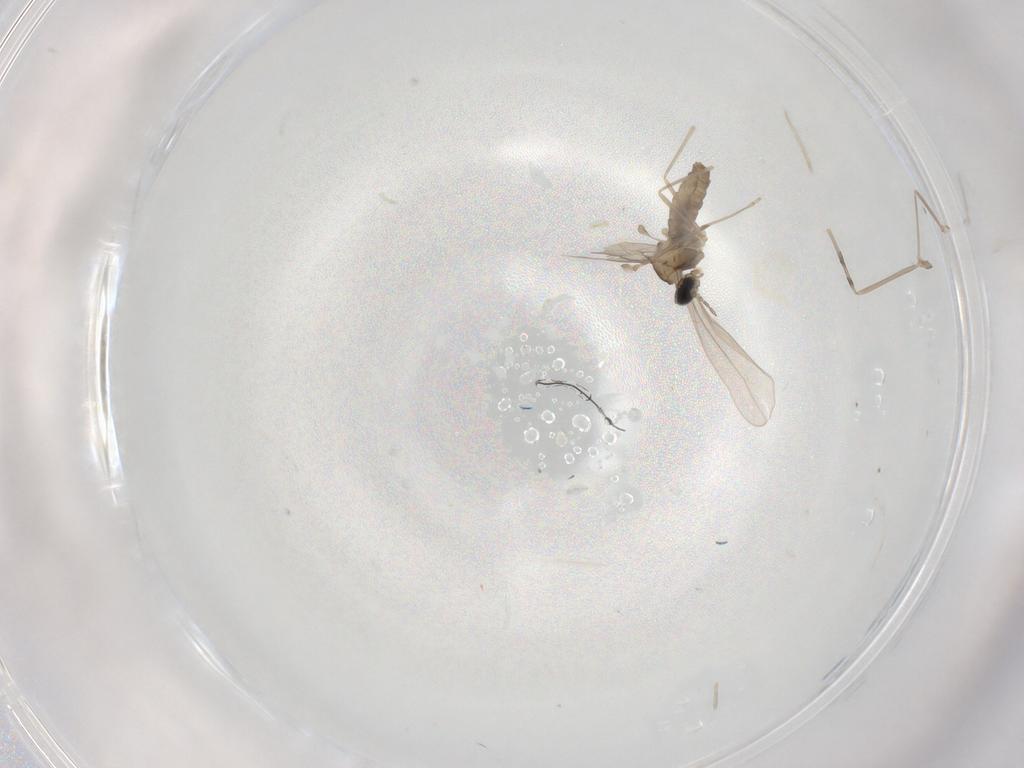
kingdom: Animalia
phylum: Arthropoda
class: Insecta
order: Diptera
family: Cecidomyiidae
